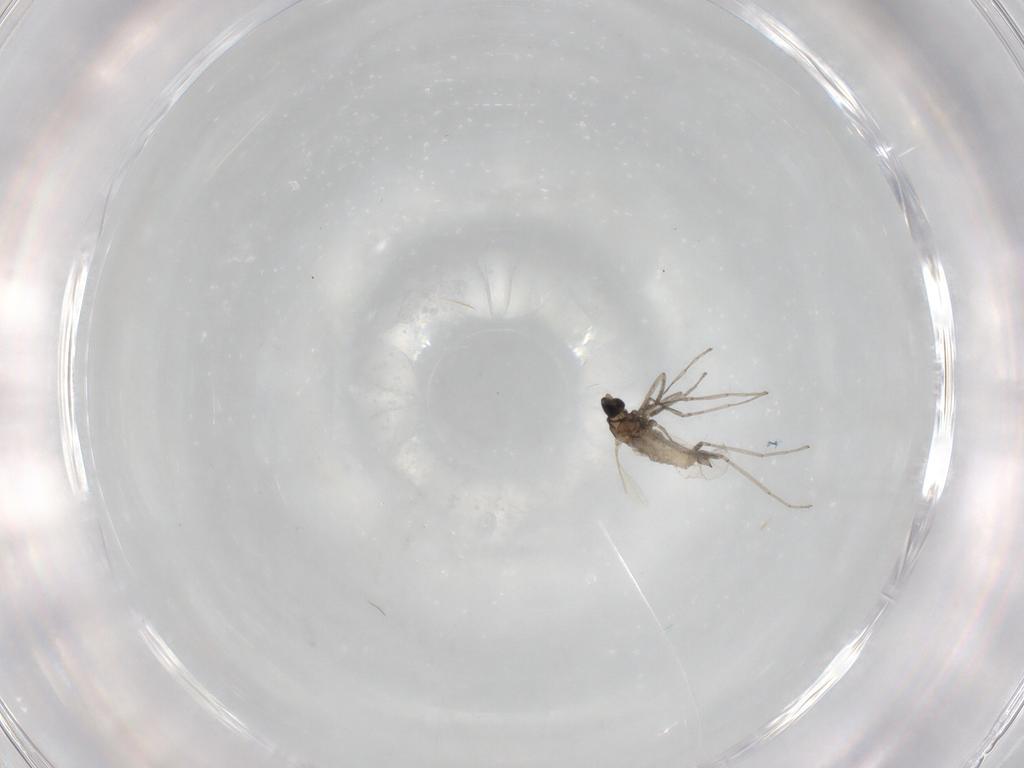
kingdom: Animalia
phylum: Arthropoda
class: Insecta
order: Diptera
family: Cecidomyiidae
